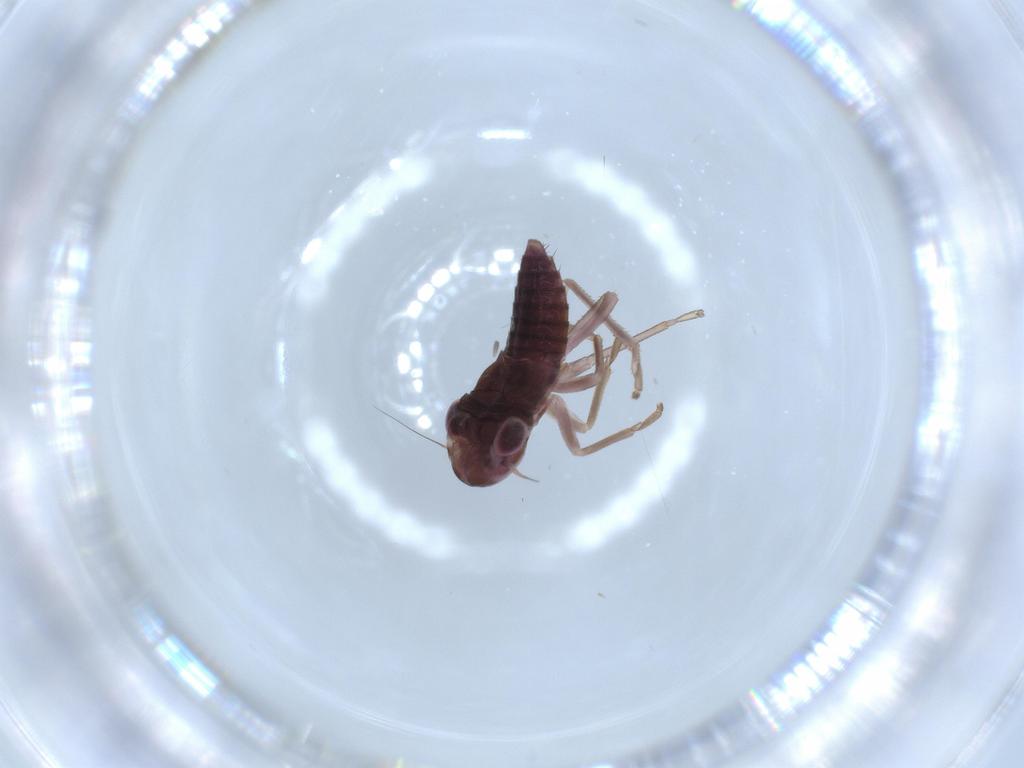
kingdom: Animalia
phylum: Arthropoda
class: Insecta
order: Hemiptera
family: Cicadellidae
